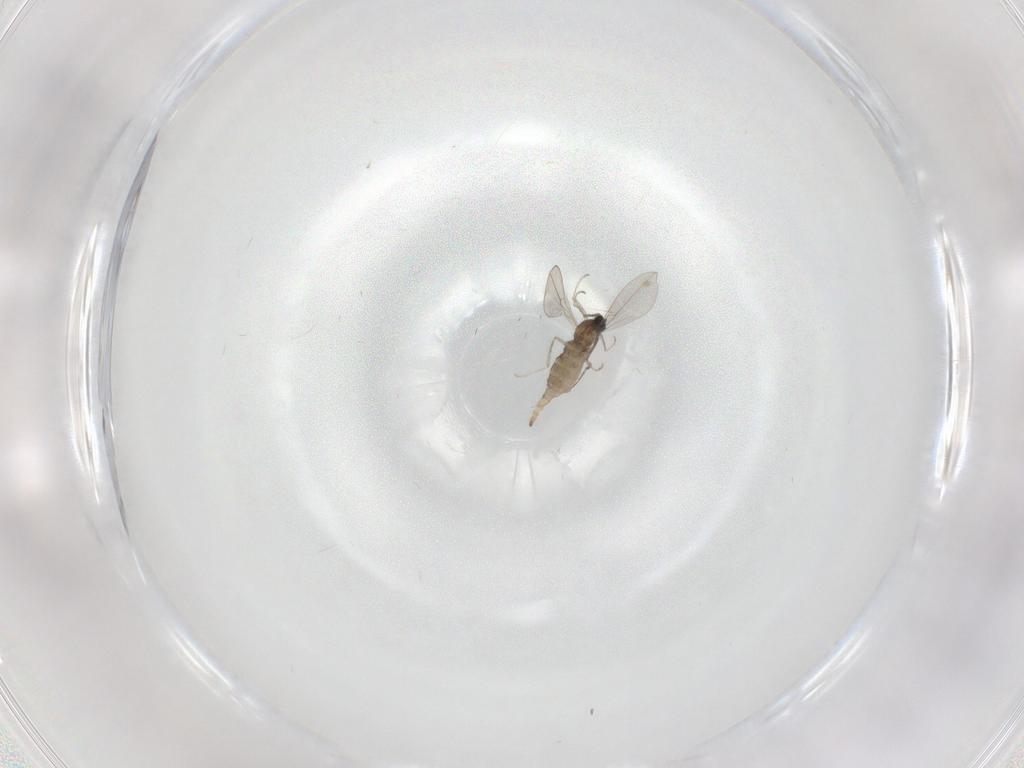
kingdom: Animalia
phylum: Arthropoda
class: Insecta
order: Diptera
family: Cecidomyiidae
